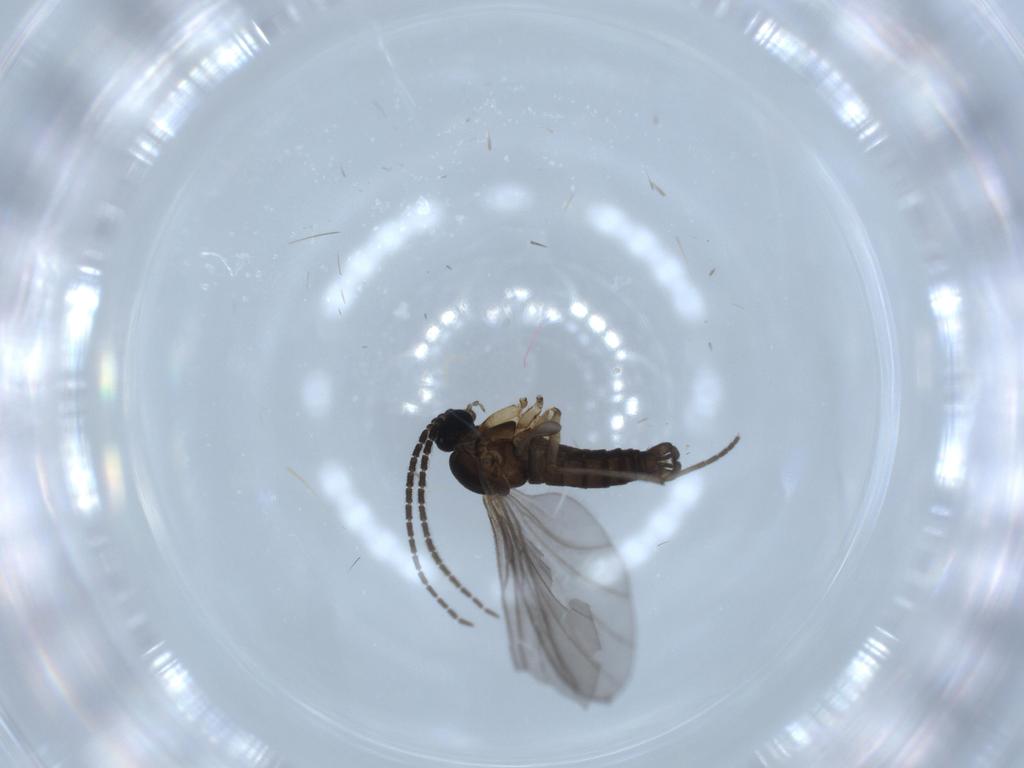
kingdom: Animalia
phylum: Arthropoda
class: Insecta
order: Diptera
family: Sciaridae
